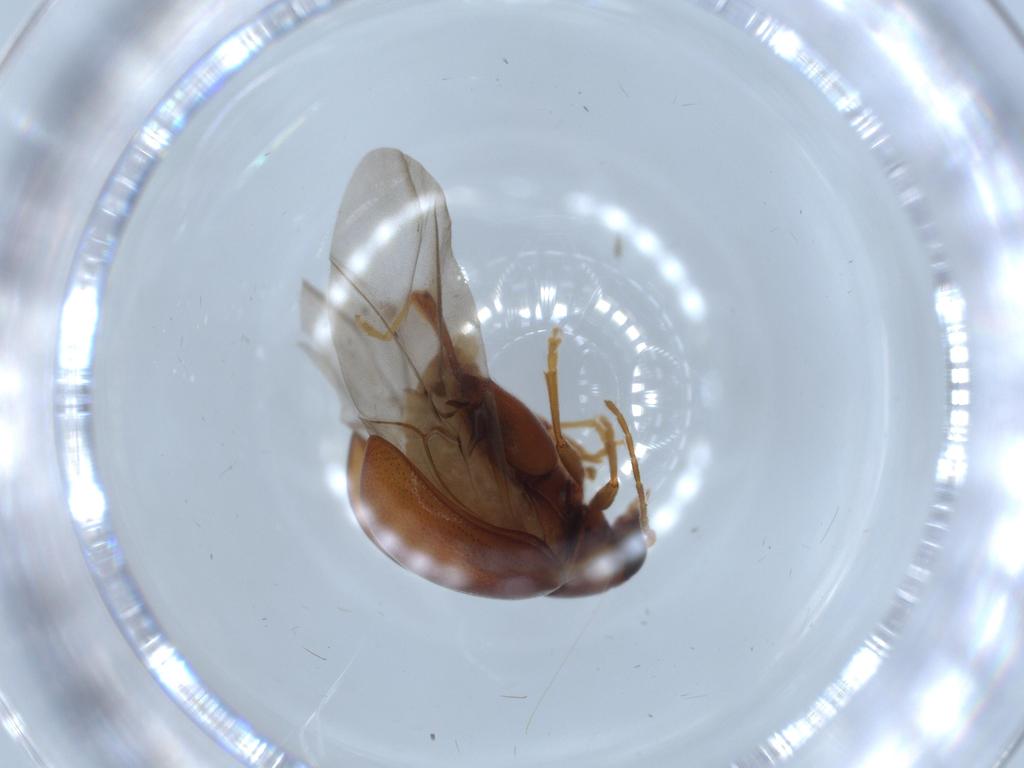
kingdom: Animalia
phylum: Arthropoda
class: Insecta
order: Coleoptera
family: Chrysomelidae
